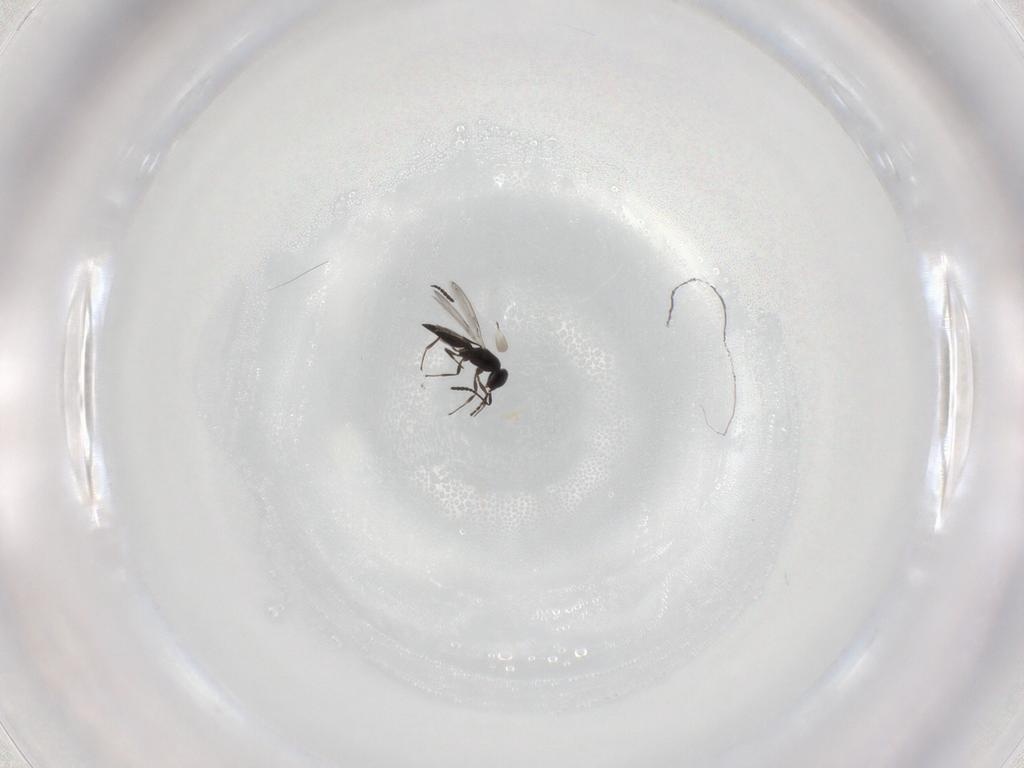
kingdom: Animalia
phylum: Arthropoda
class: Insecta
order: Hymenoptera
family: Scelionidae
